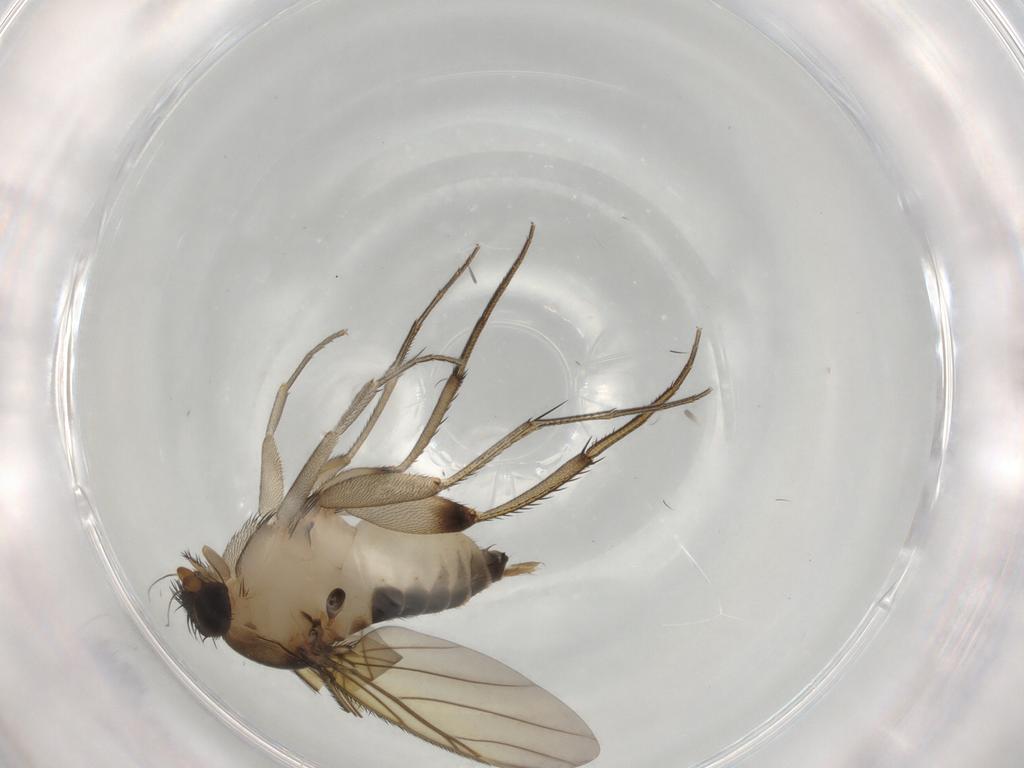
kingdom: Animalia
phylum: Arthropoda
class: Insecta
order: Diptera
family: Phoridae
